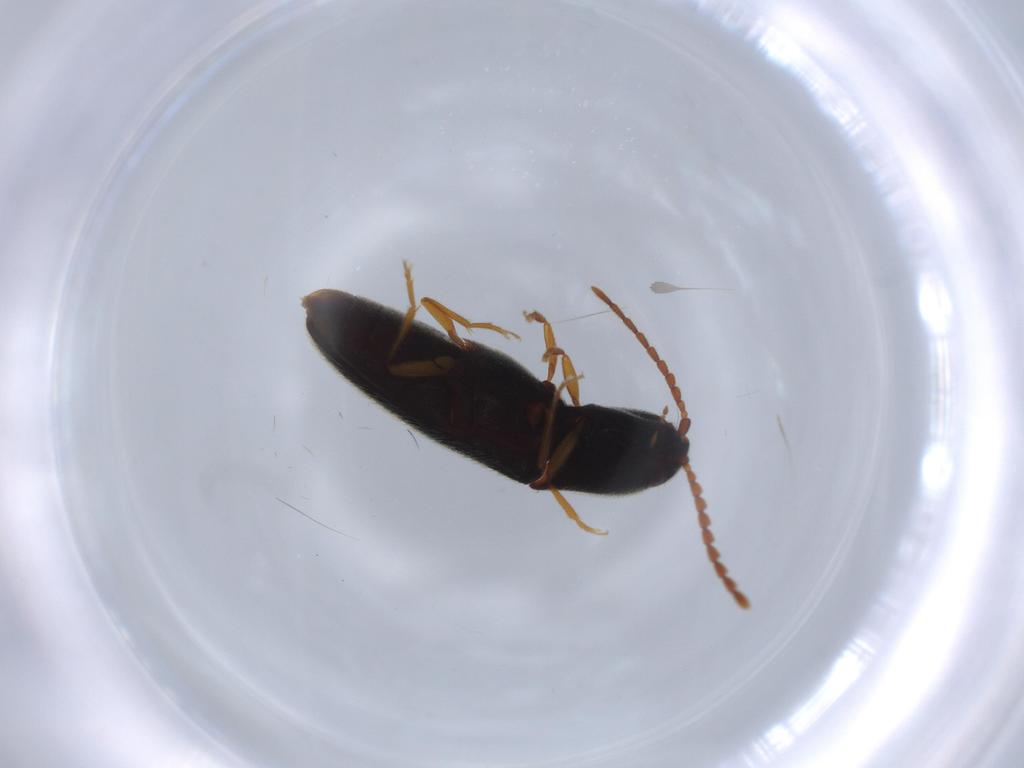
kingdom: Animalia
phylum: Arthropoda
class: Insecta
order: Coleoptera
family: Elateridae
